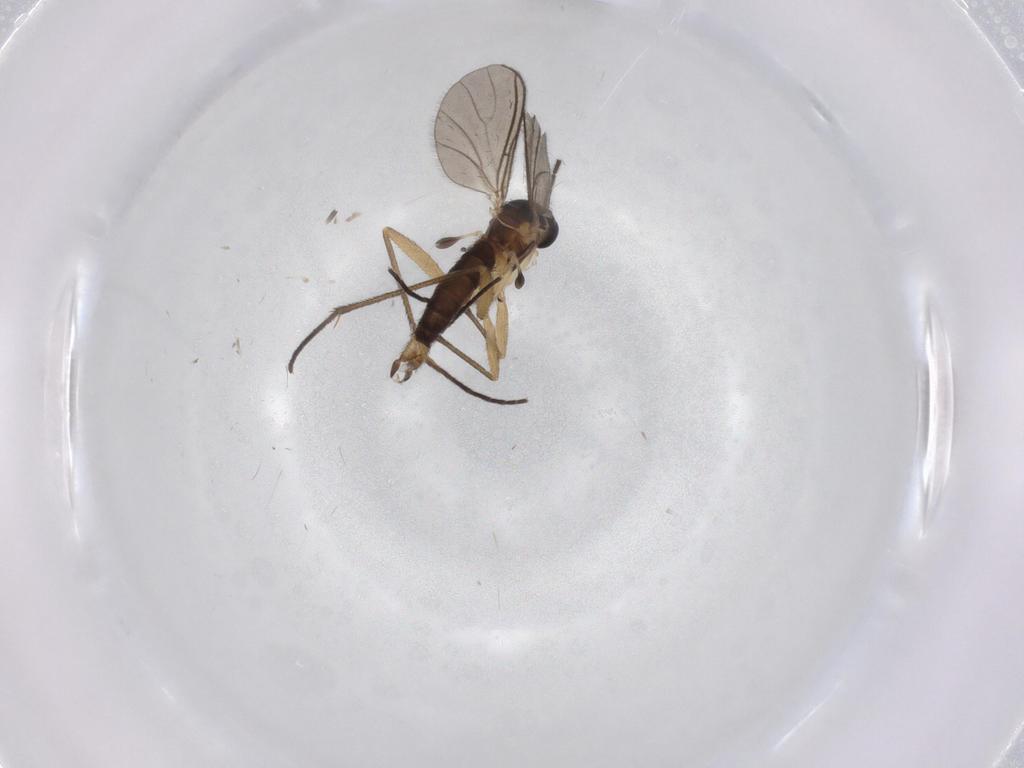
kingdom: Animalia
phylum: Arthropoda
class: Insecta
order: Diptera
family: Cecidomyiidae
